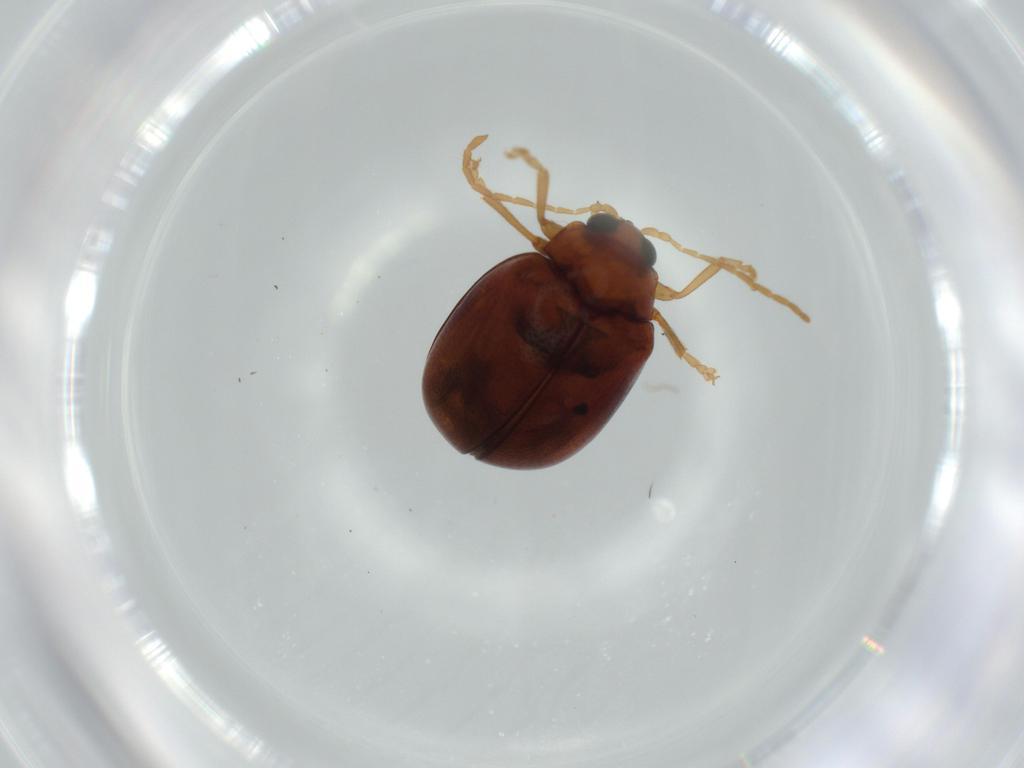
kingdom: Animalia
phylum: Arthropoda
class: Insecta
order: Coleoptera
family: Chrysomelidae
